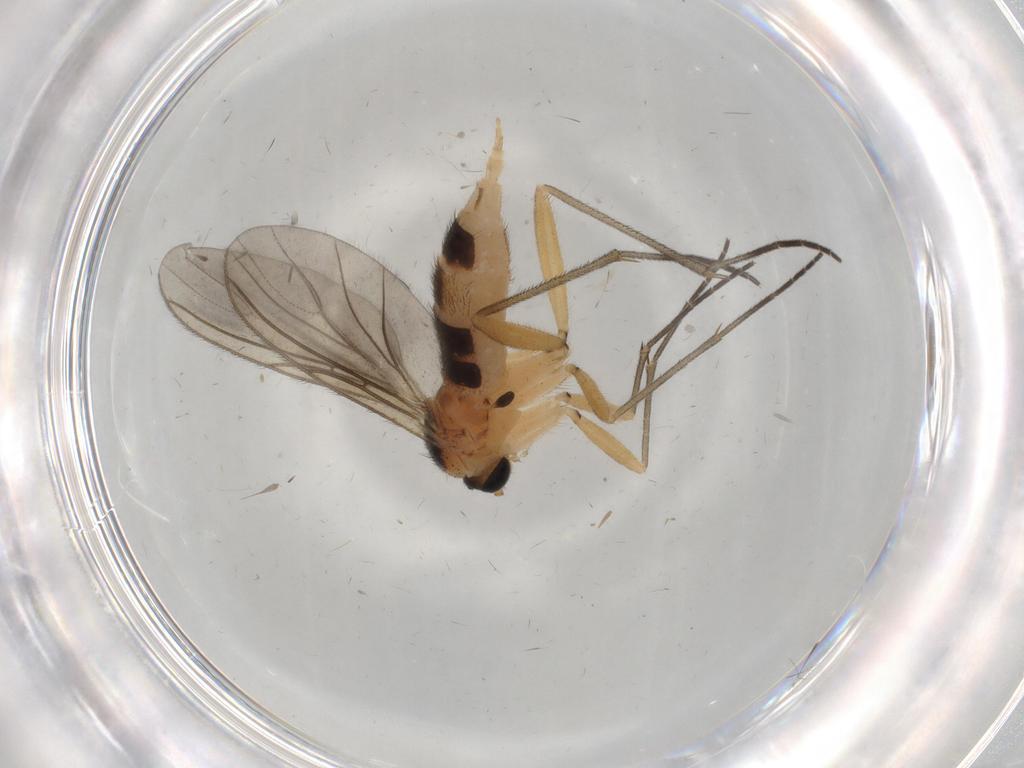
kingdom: Animalia
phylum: Arthropoda
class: Insecta
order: Diptera
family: Sciaridae
